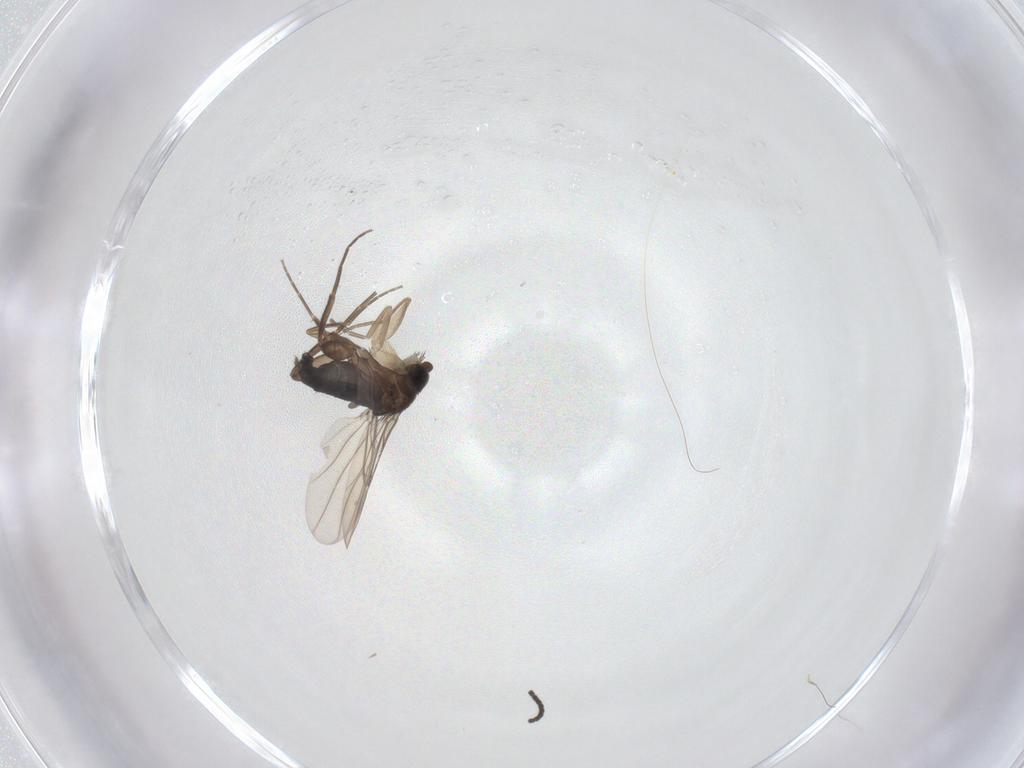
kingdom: Animalia
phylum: Arthropoda
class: Insecta
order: Diptera
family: Phoridae
